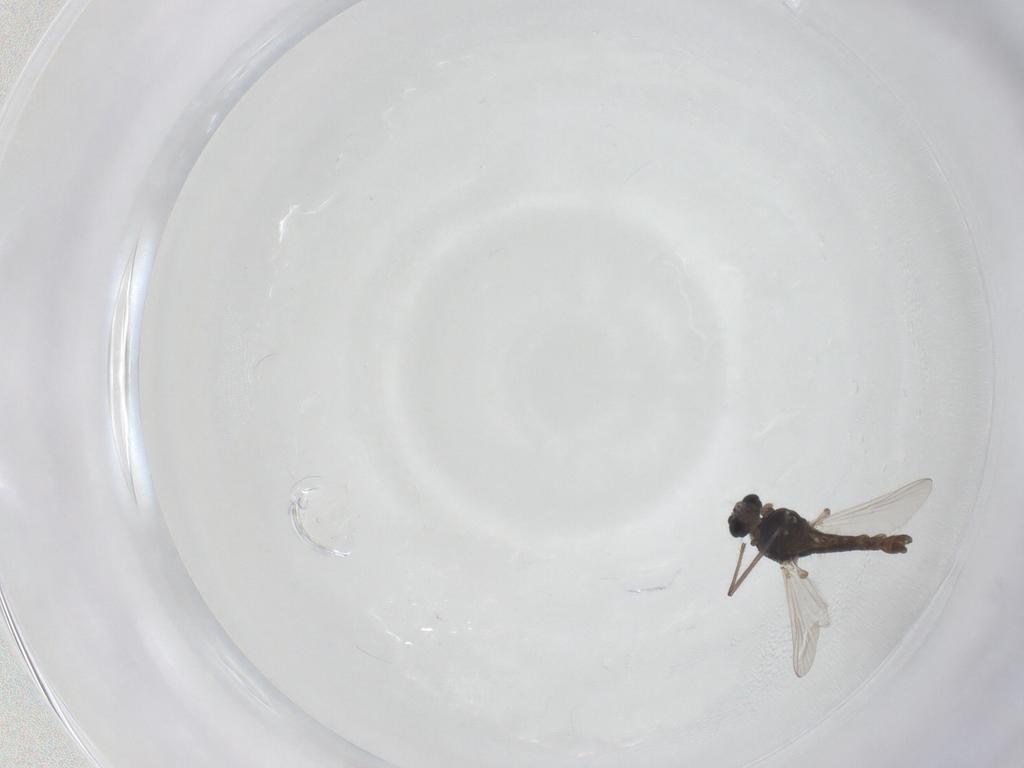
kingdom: Animalia
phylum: Arthropoda
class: Insecta
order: Diptera
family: Chironomidae
